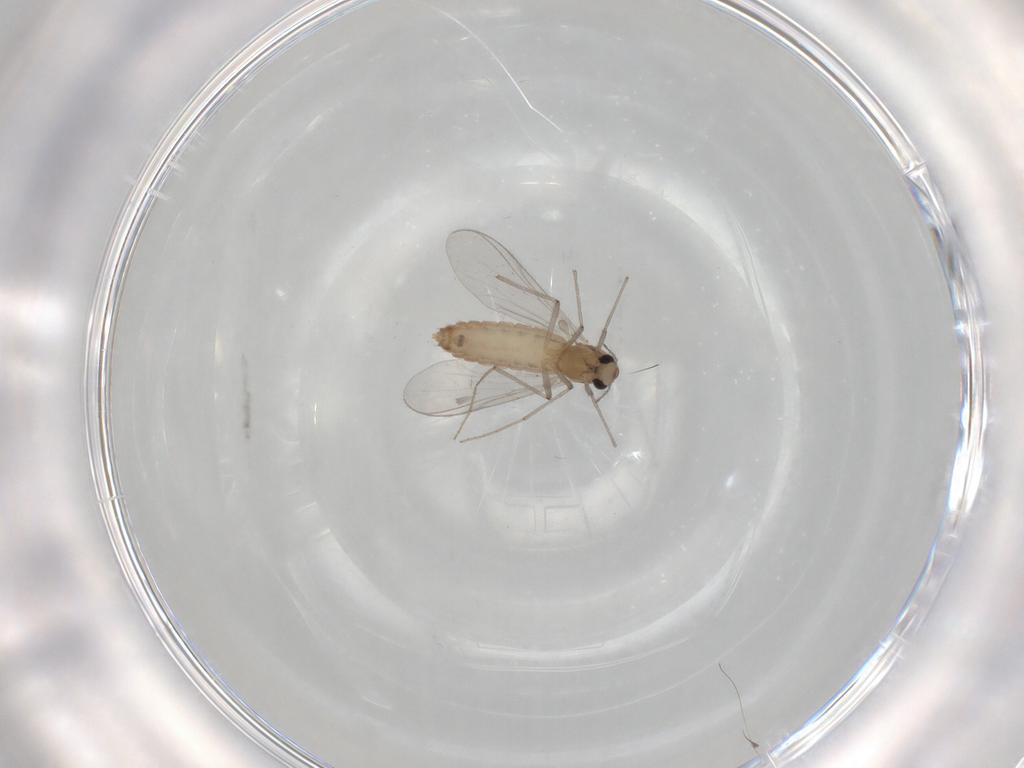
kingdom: Animalia
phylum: Arthropoda
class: Insecta
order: Diptera
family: Chironomidae
